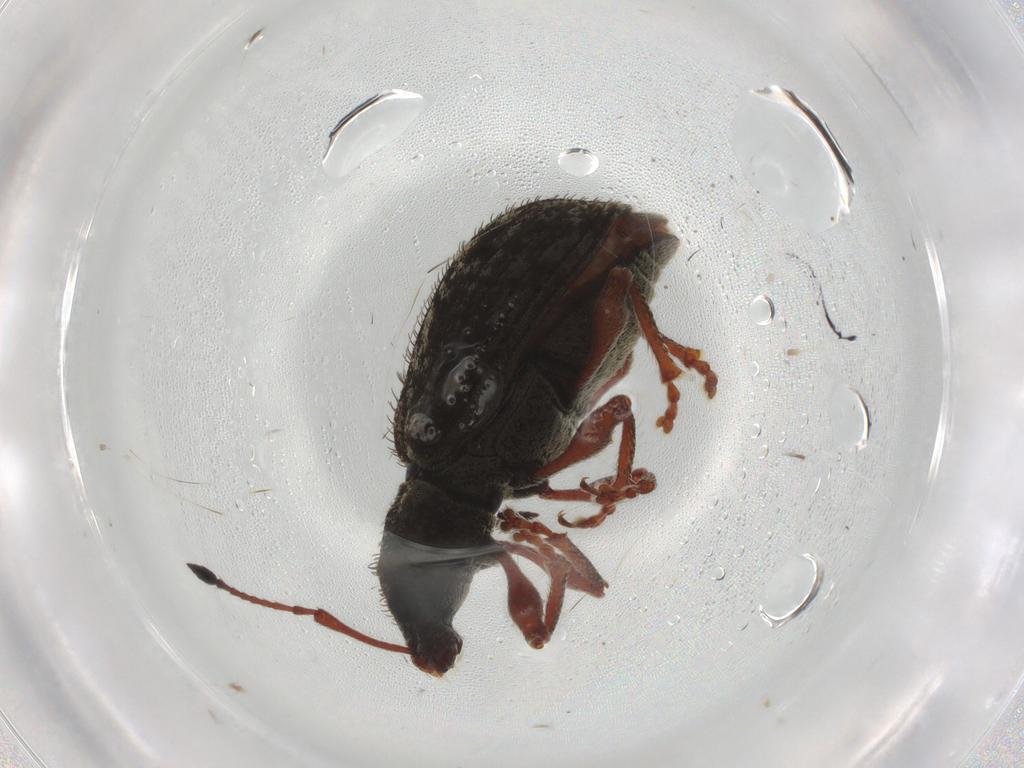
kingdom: Animalia
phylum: Arthropoda
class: Insecta
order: Coleoptera
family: Curculionidae
